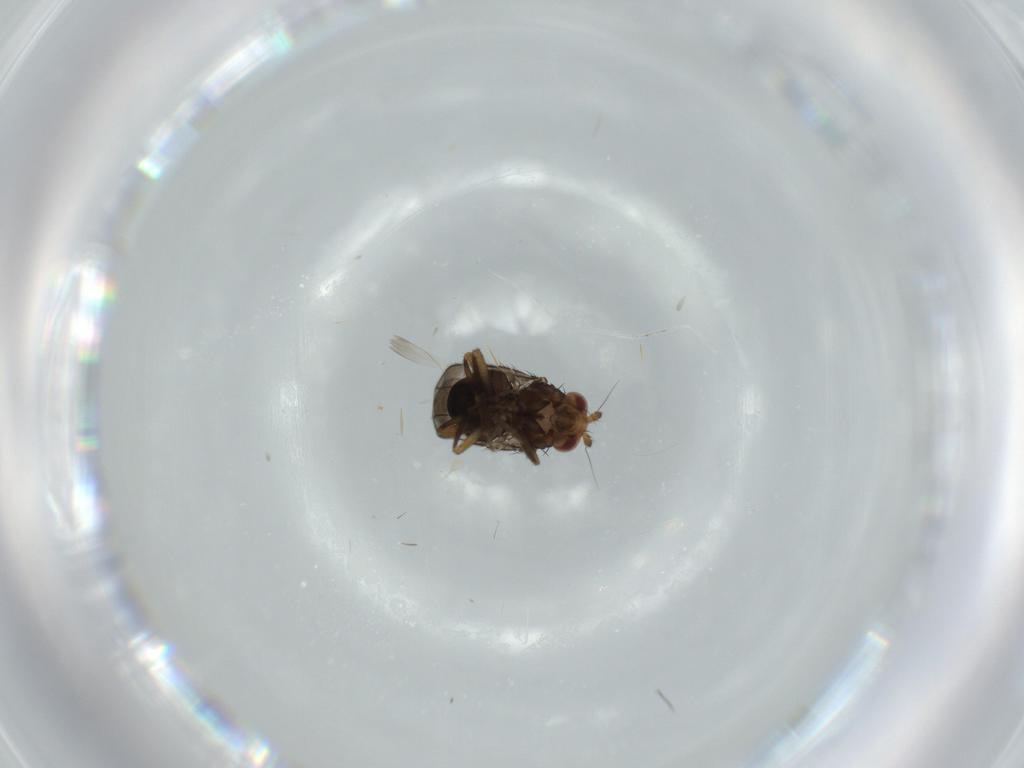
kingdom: Animalia
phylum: Arthropoda
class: Insecta
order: Diptera
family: Cecidomyiidae
